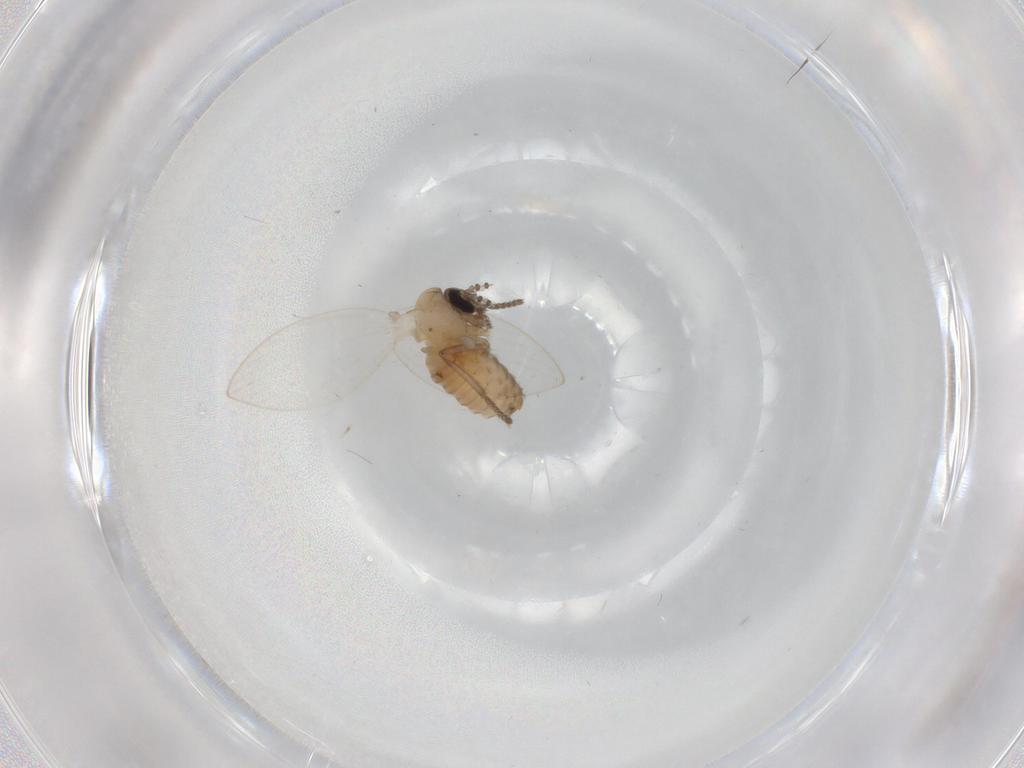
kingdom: Animalia
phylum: Arthropoda
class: Insecta
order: Diptera
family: Psychodidae
